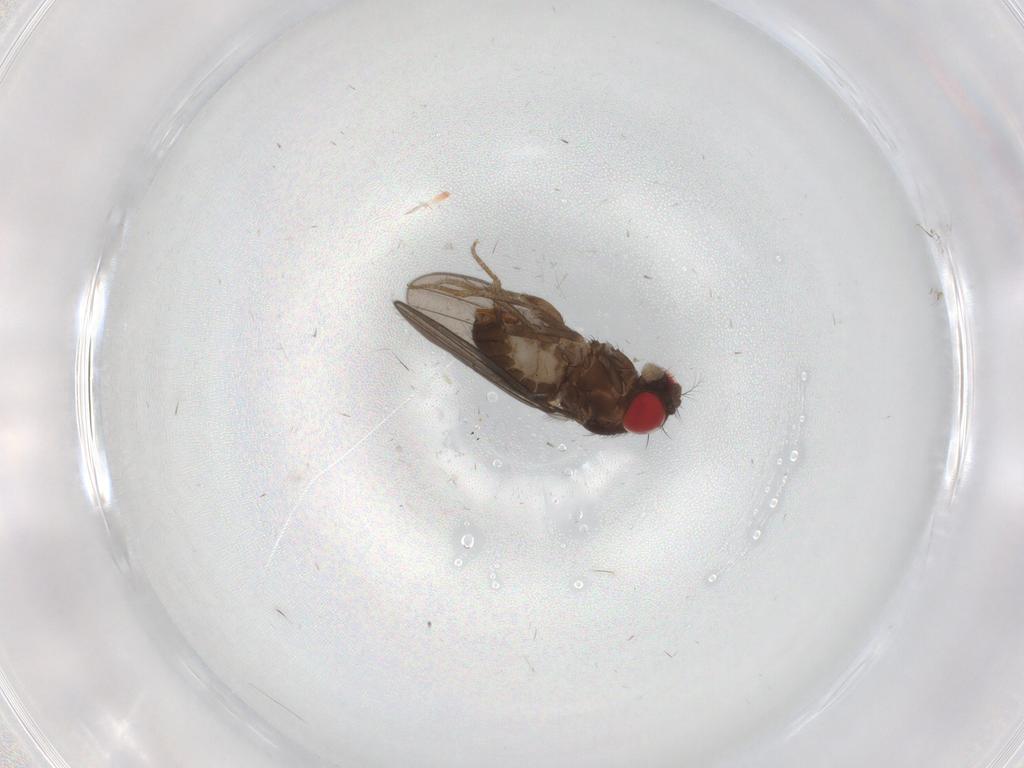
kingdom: Animalia
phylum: Arthropoda
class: Insecta
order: Diptera
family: Drosophilidae
